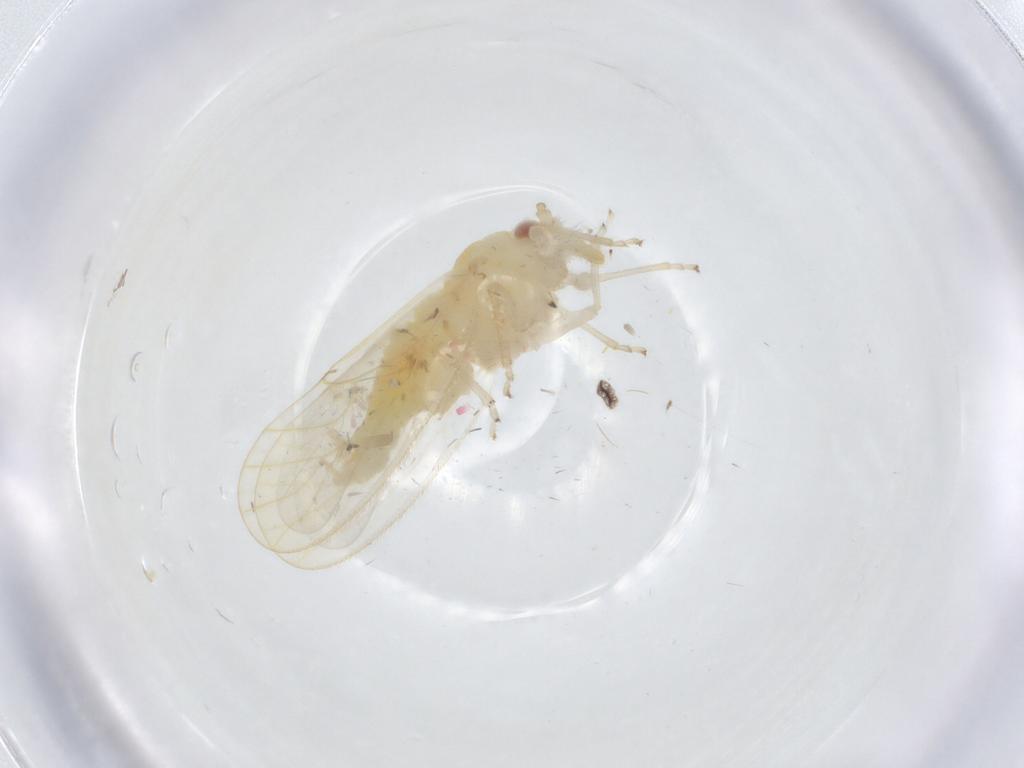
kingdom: Animalia
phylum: Arthropoda
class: Insecta
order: Diptera
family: Limoniidae
